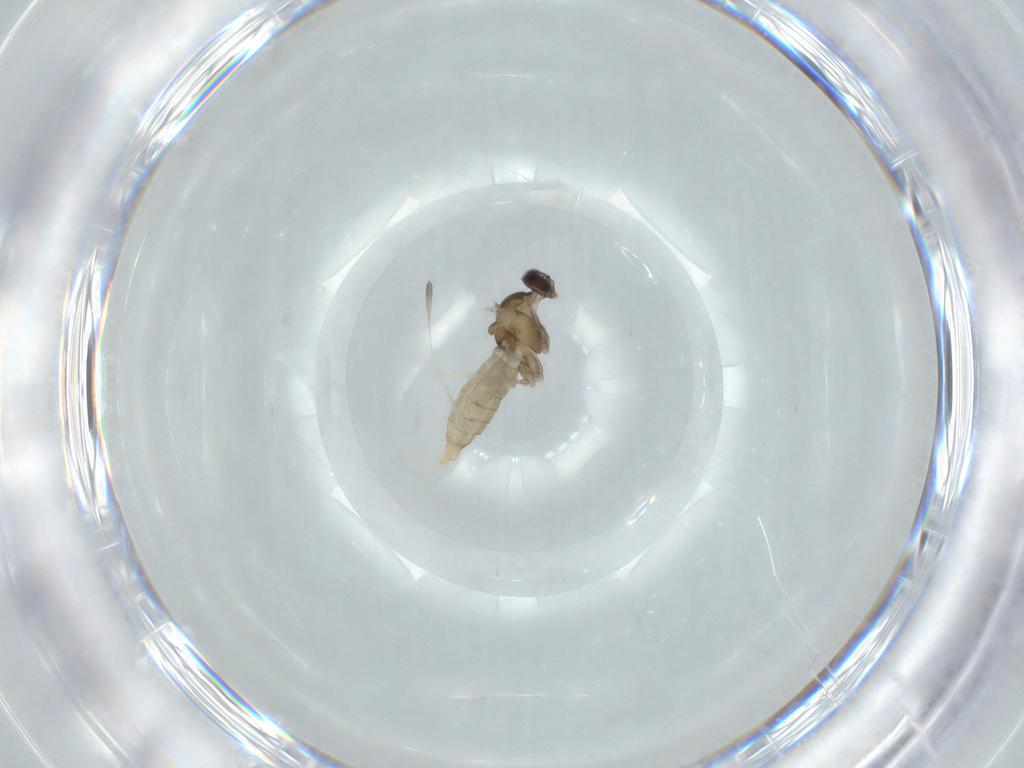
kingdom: Animalia
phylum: Arthropoda
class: Insecta
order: Diptera
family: Cecidomyiidae
